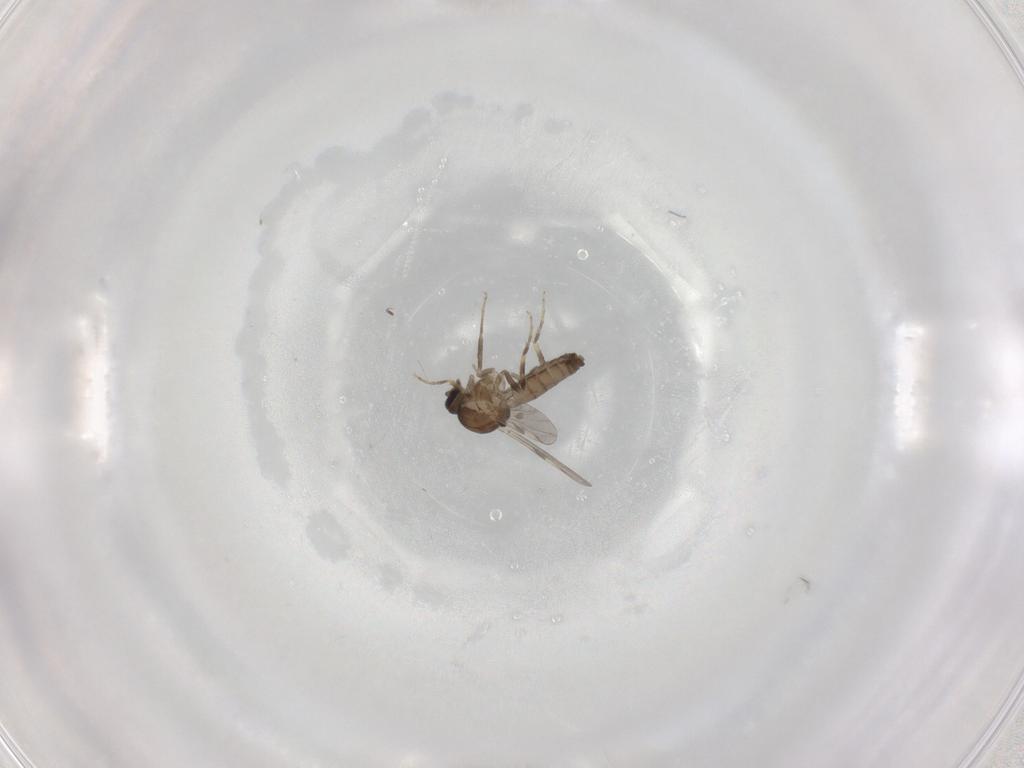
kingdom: Animalia
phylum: Arthropoda
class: Insecta
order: Diptera
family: Ceratopogonidae
